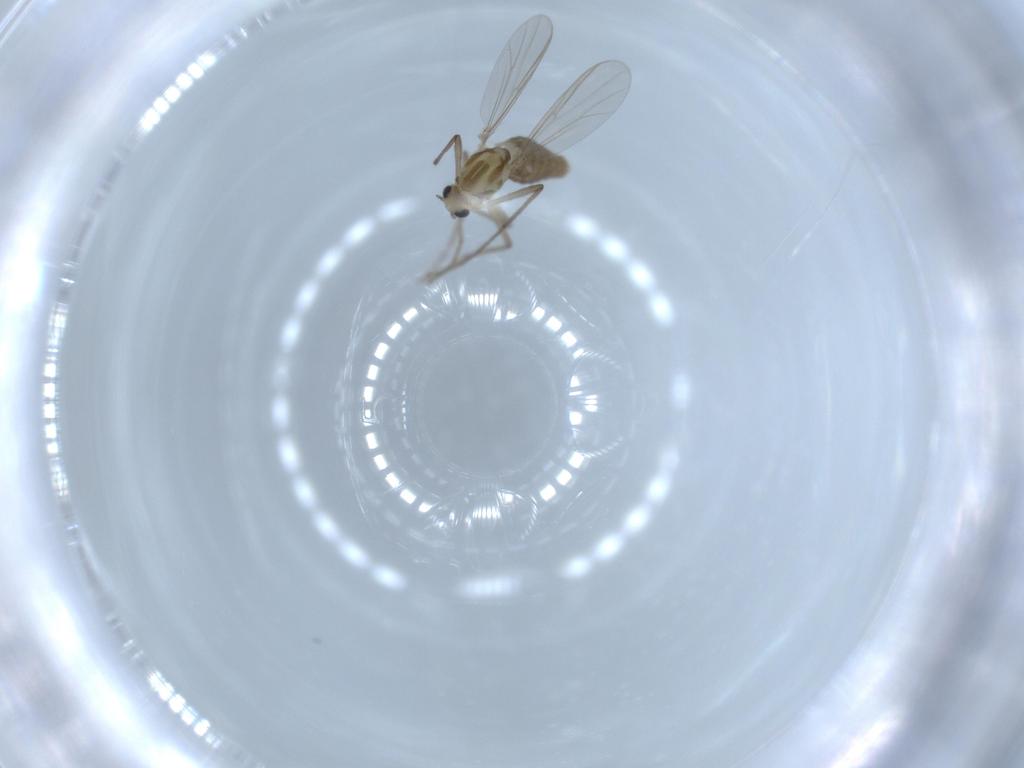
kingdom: Animalia
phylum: Arthropoda
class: Insecta
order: Diptera
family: Chironomidae
